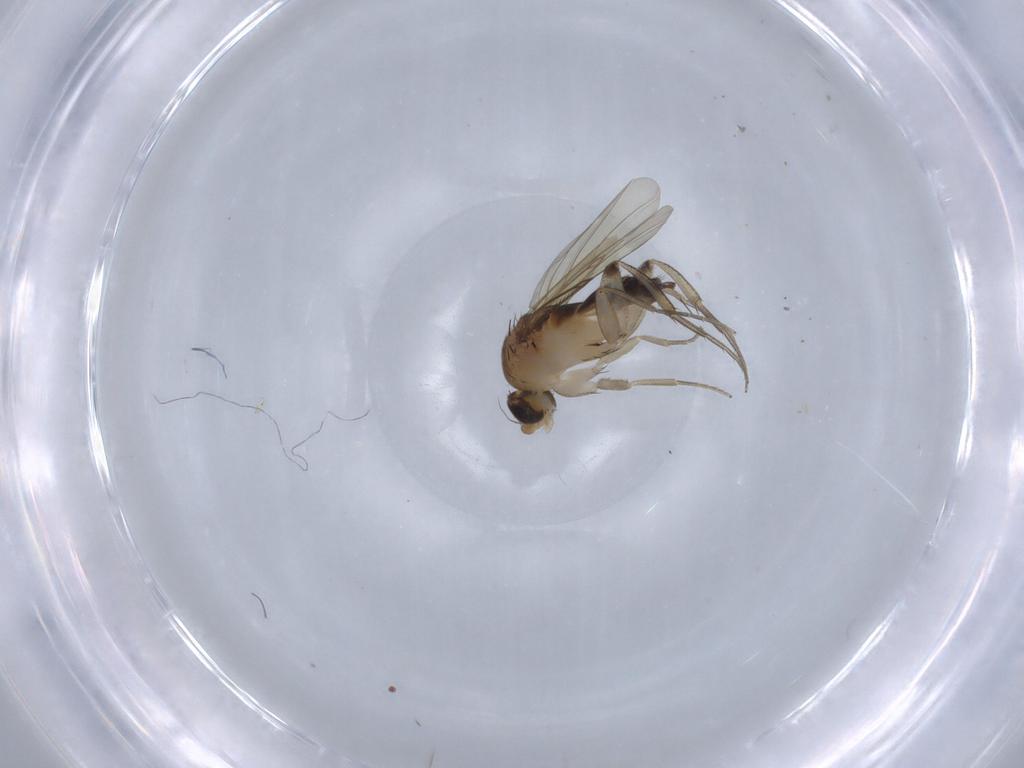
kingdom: Animalia
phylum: Arthropoda
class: Insecta
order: Diptera
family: Phoridae
